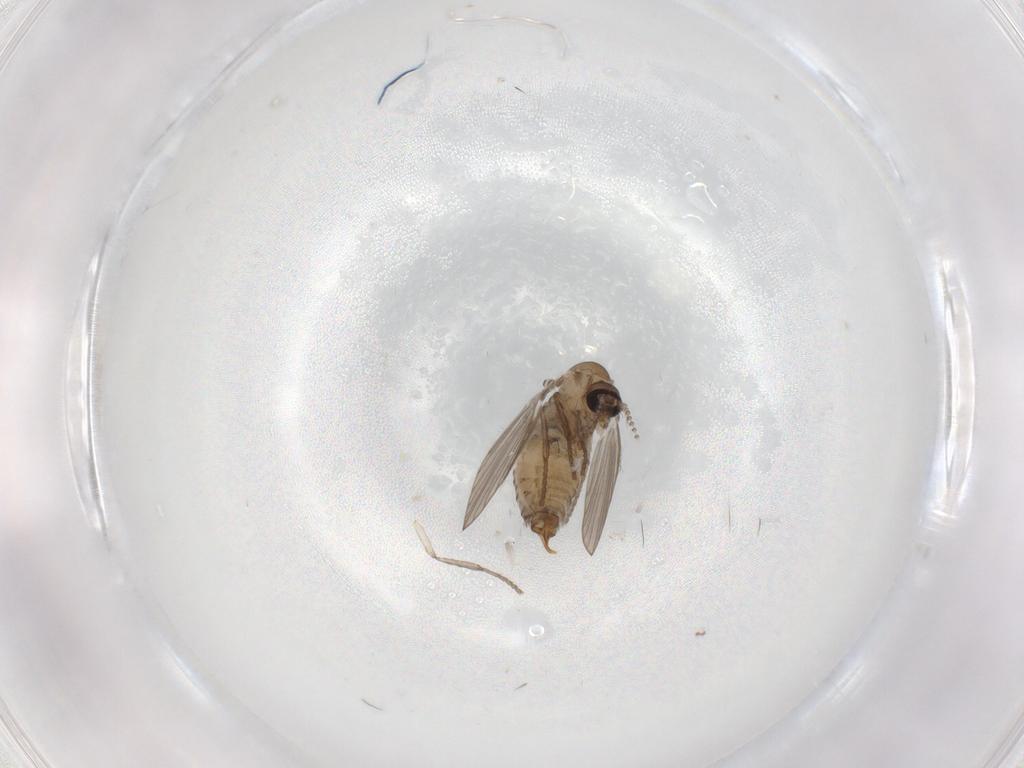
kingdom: Animalia
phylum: Arthropoda
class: Insecta
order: Diptera
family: Psychodidae
